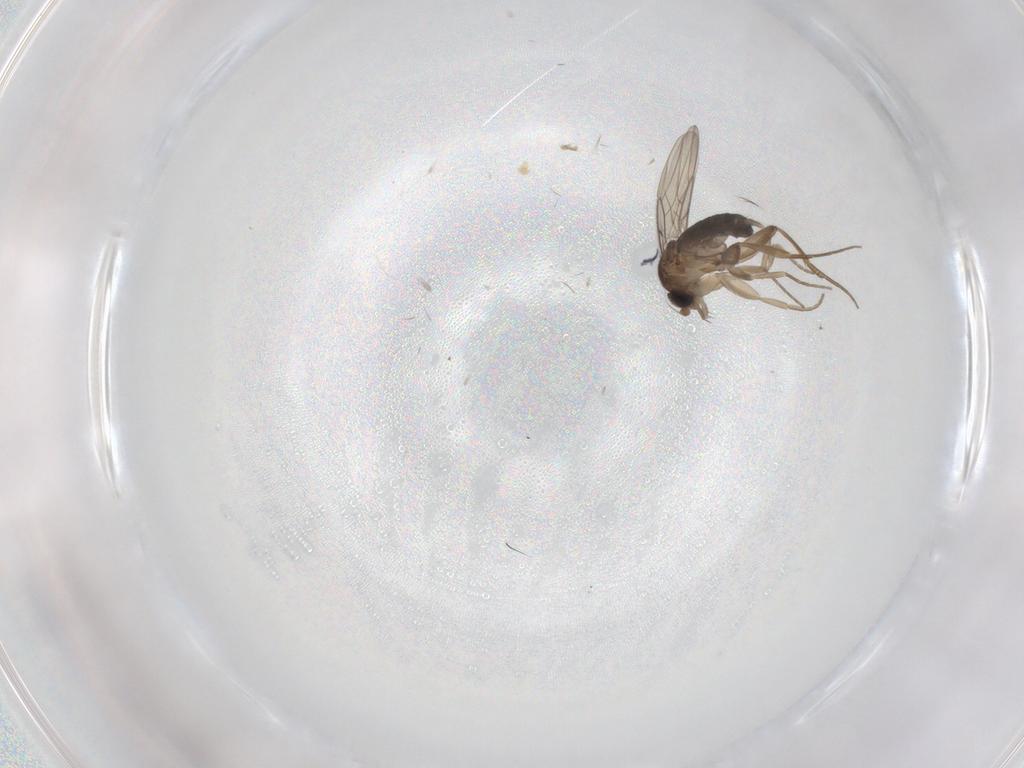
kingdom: Animalia
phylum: Arthropoda
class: Insecta
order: Diptera
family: Phoridae
